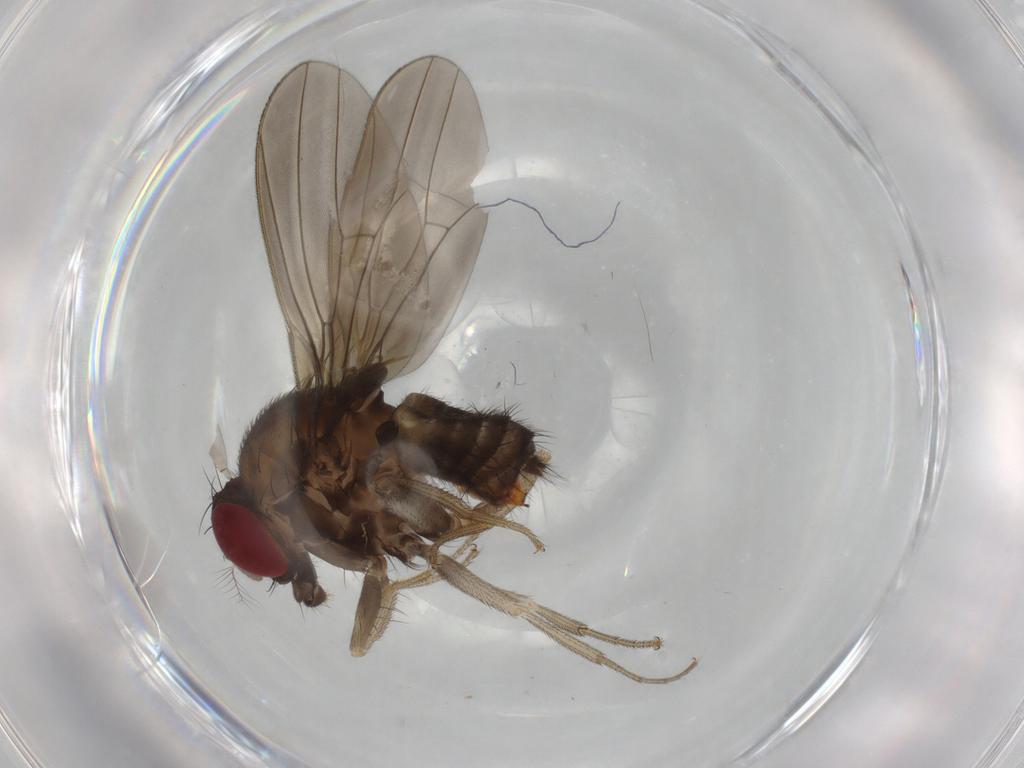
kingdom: Animalia
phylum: Arthropoda
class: Insecta
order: Diptera
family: Drosophilidae
